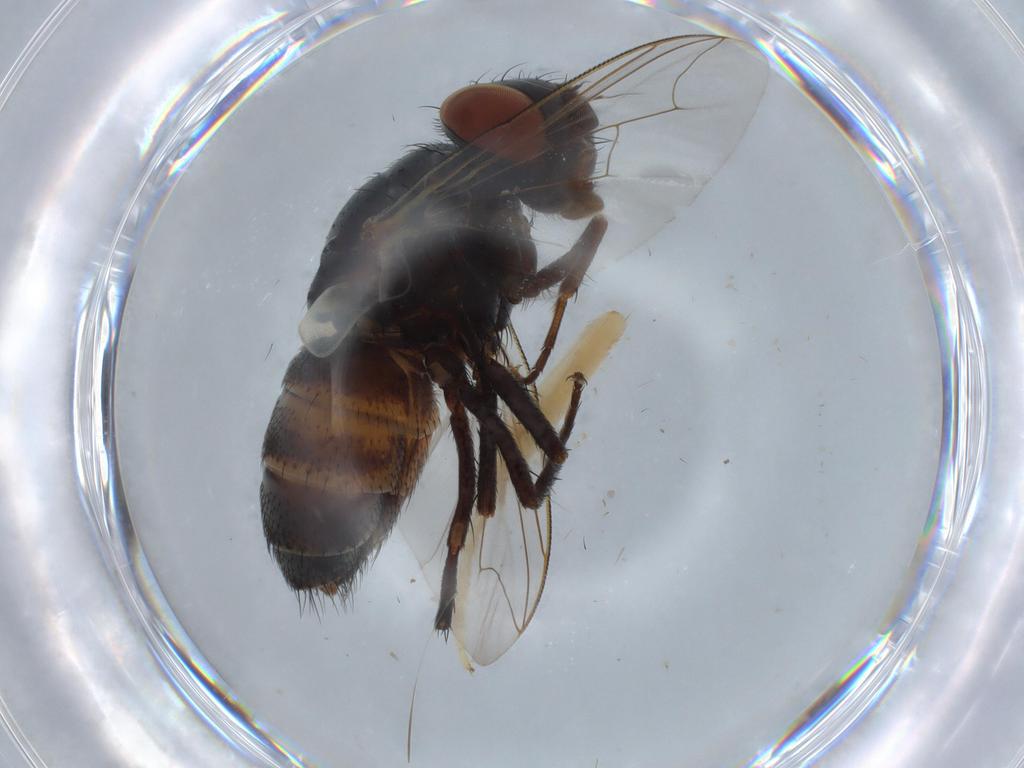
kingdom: Animalia
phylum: Arthropoda
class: Insecta
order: Diptera
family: Sarcophagidae
